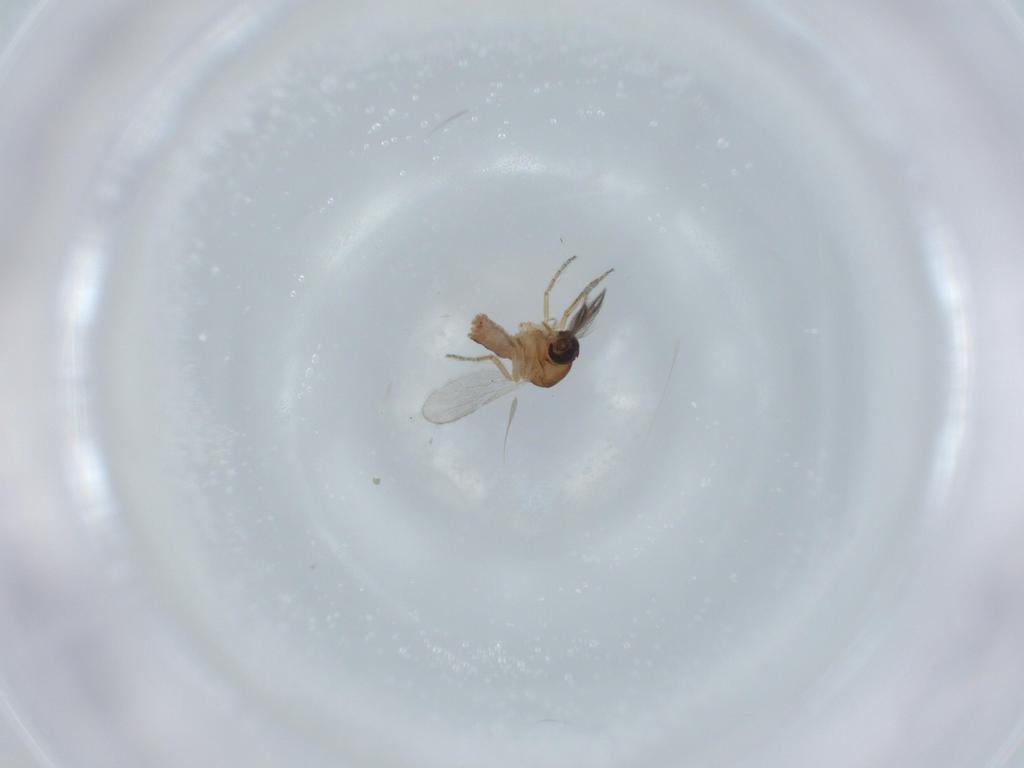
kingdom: Animalia
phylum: Arthropoda
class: Insecta
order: Diptera
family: Ceratopogonidae
